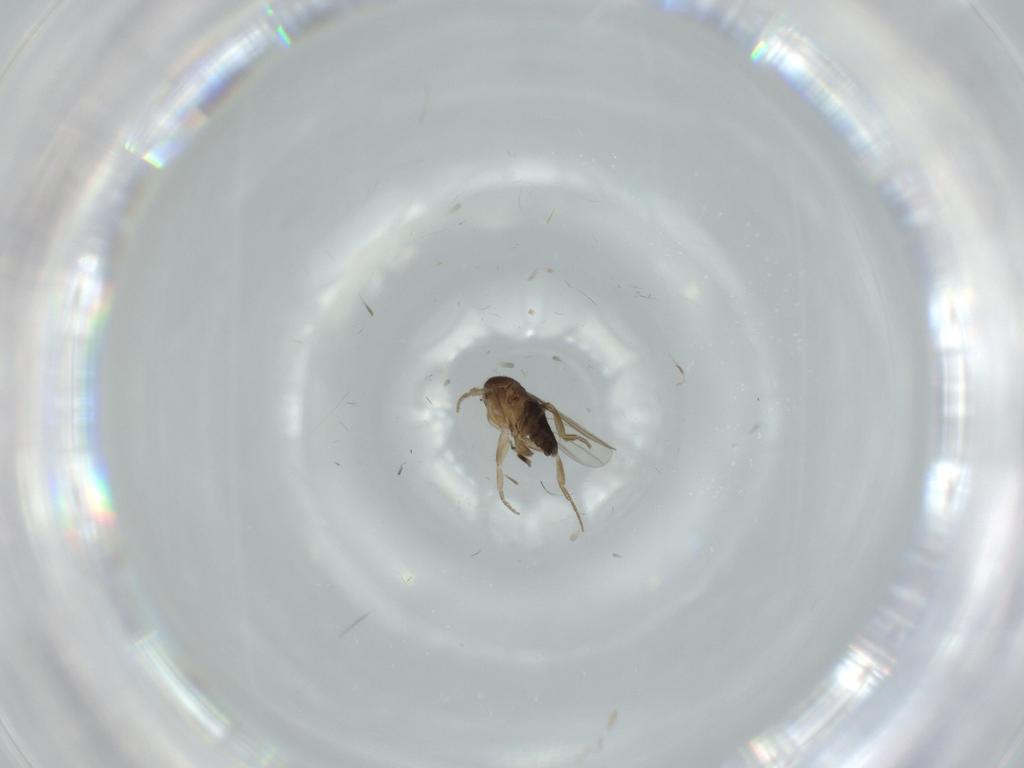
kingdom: Animalia
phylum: Arthropoda
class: Insecta
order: Diptera
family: Phoridae
